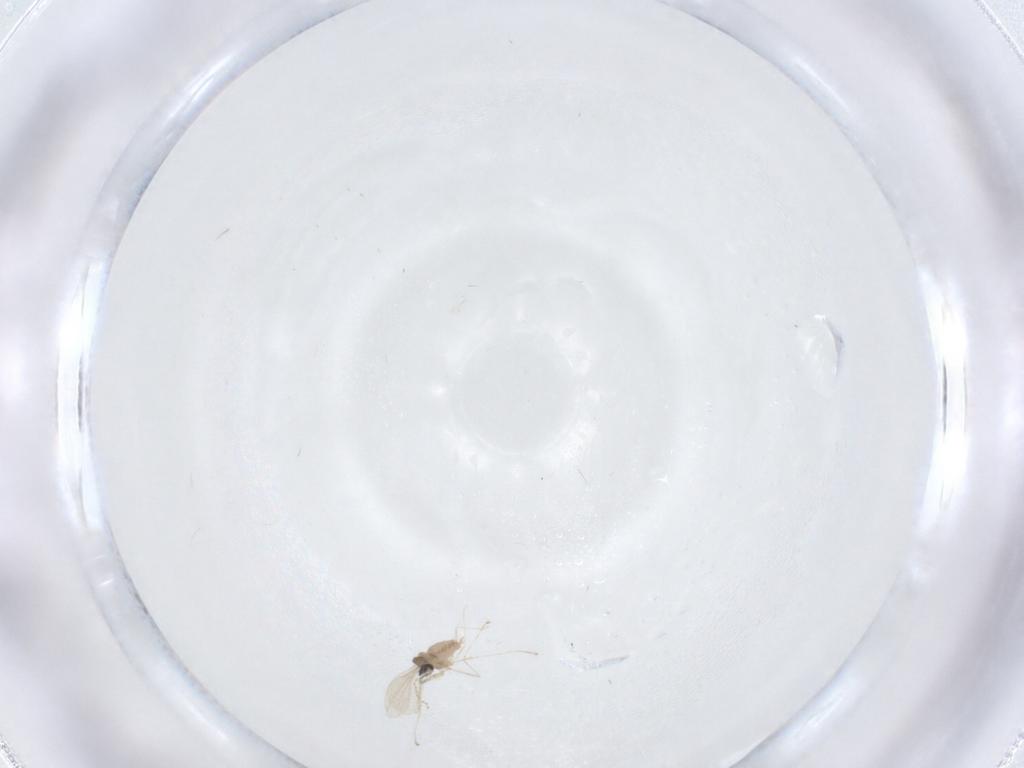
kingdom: Animalia
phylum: Arthropoda
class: Insecta
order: Diptera
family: Cecidomyiidae
